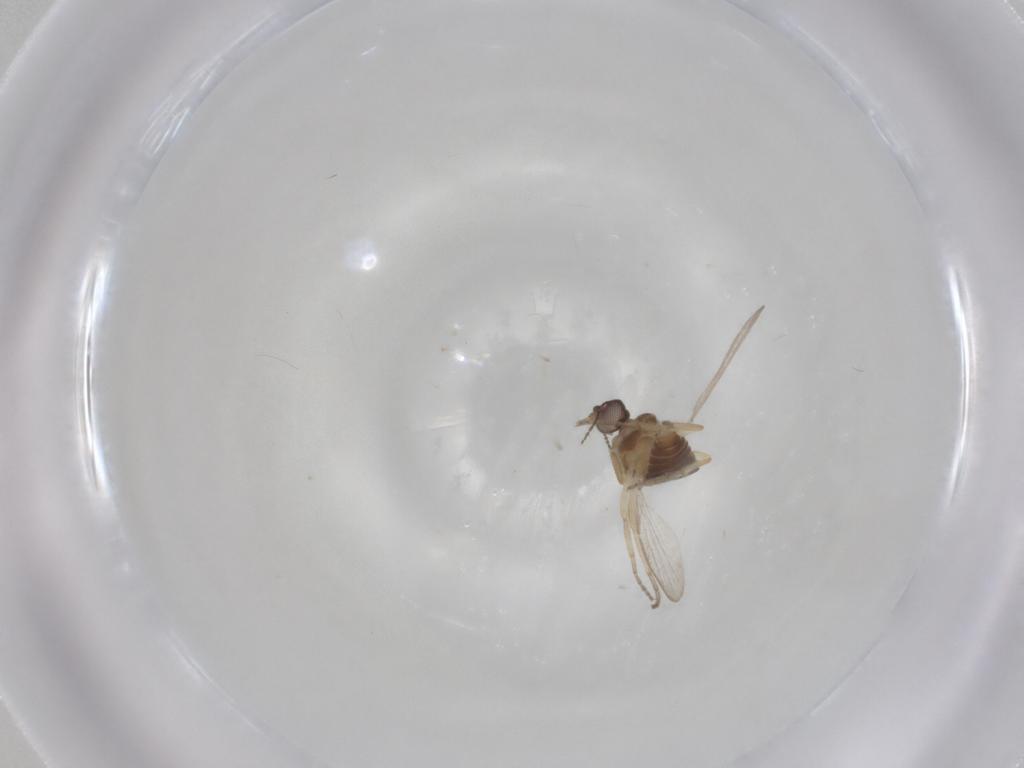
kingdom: Animalia
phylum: Arthropoda
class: Insecta
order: Diptera
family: Ceratopogonidae
